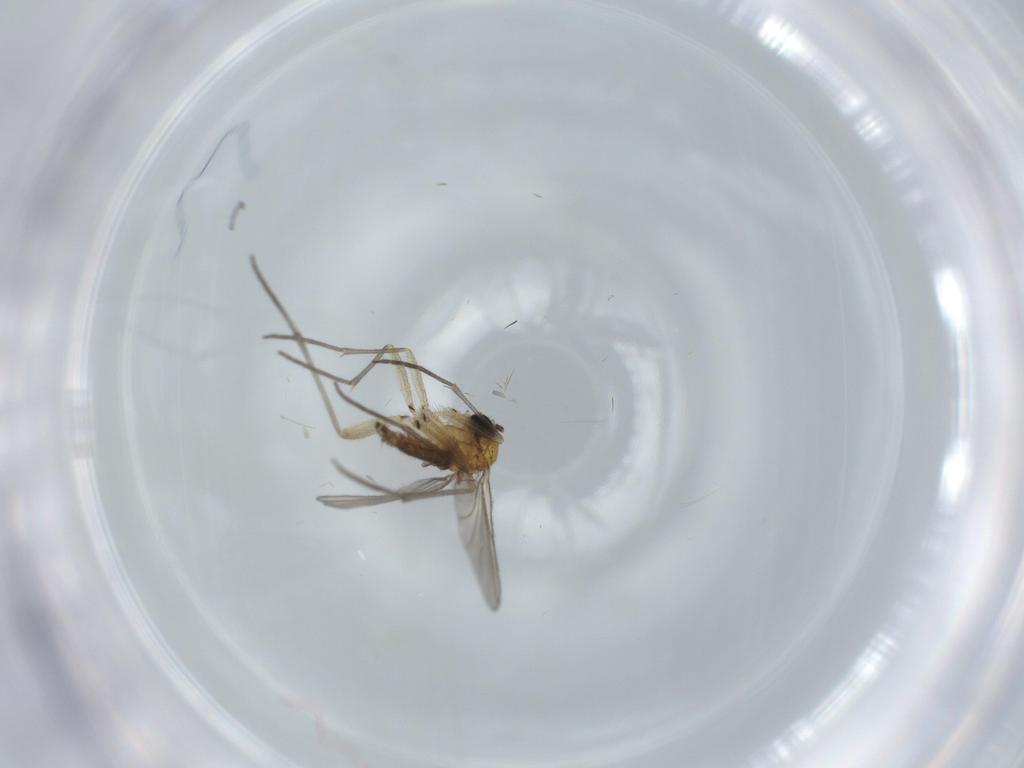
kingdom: Animalia
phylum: Arthropoda
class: Insecta
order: Diptera
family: Sciaridae
